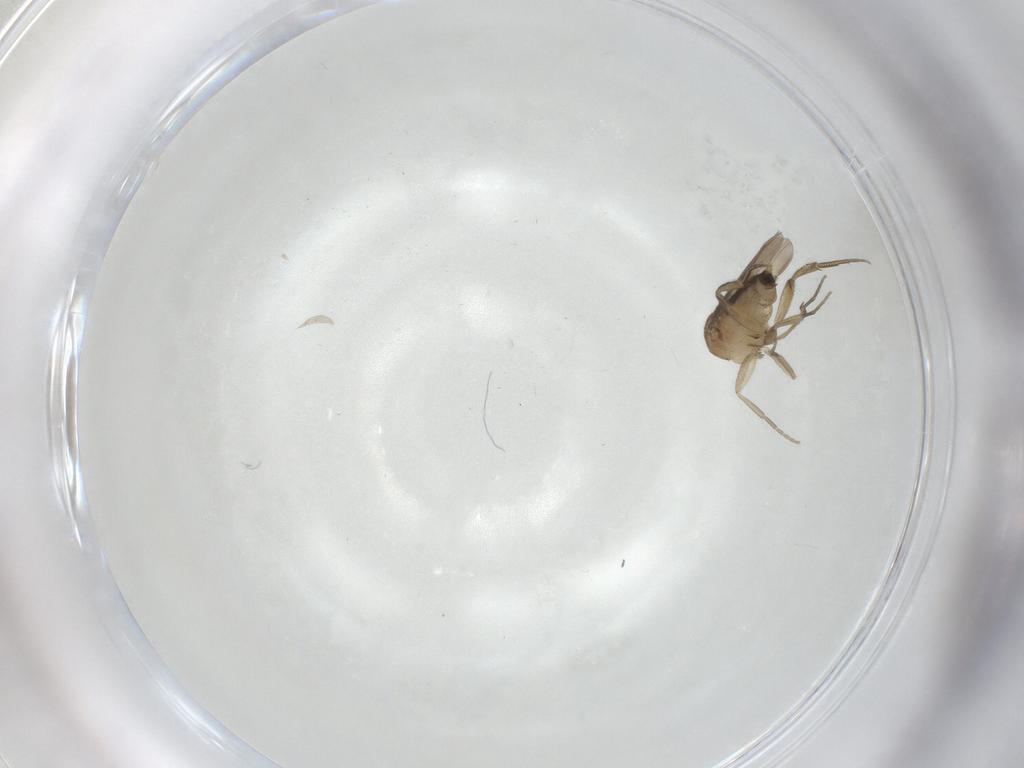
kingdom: Animalia
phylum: Arthropoda
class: Insecta
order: Diptera
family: Phoridae
